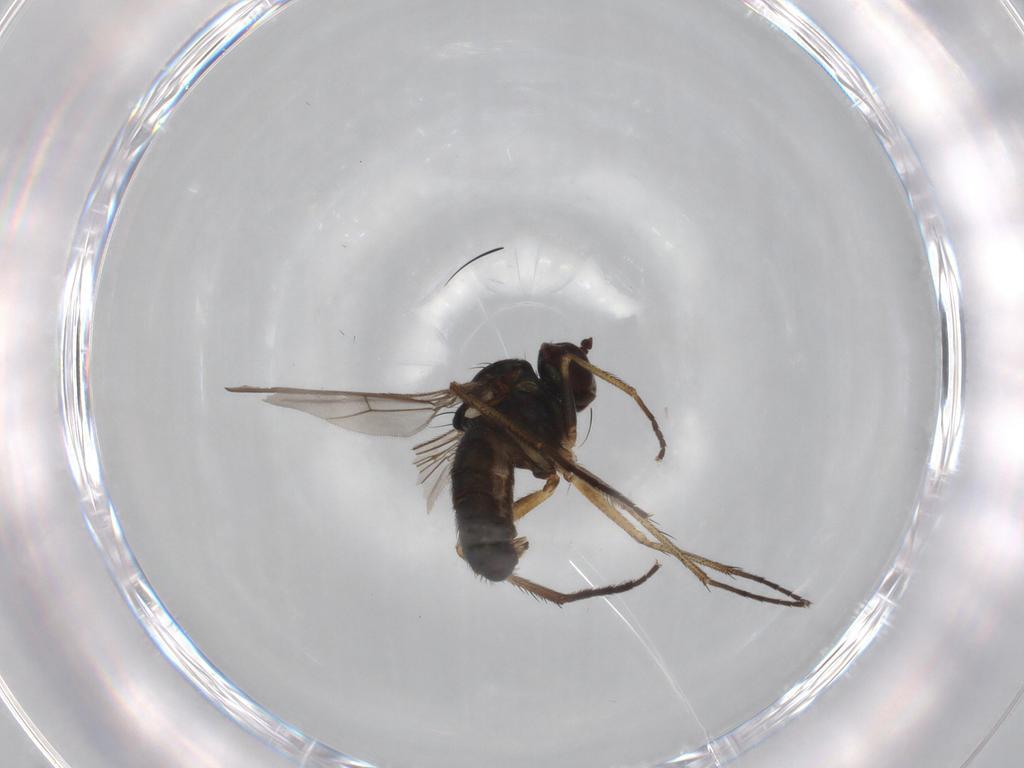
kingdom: Animalia
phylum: Arthropoda
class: Insecta
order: Diptera
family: Dolichopodidae
